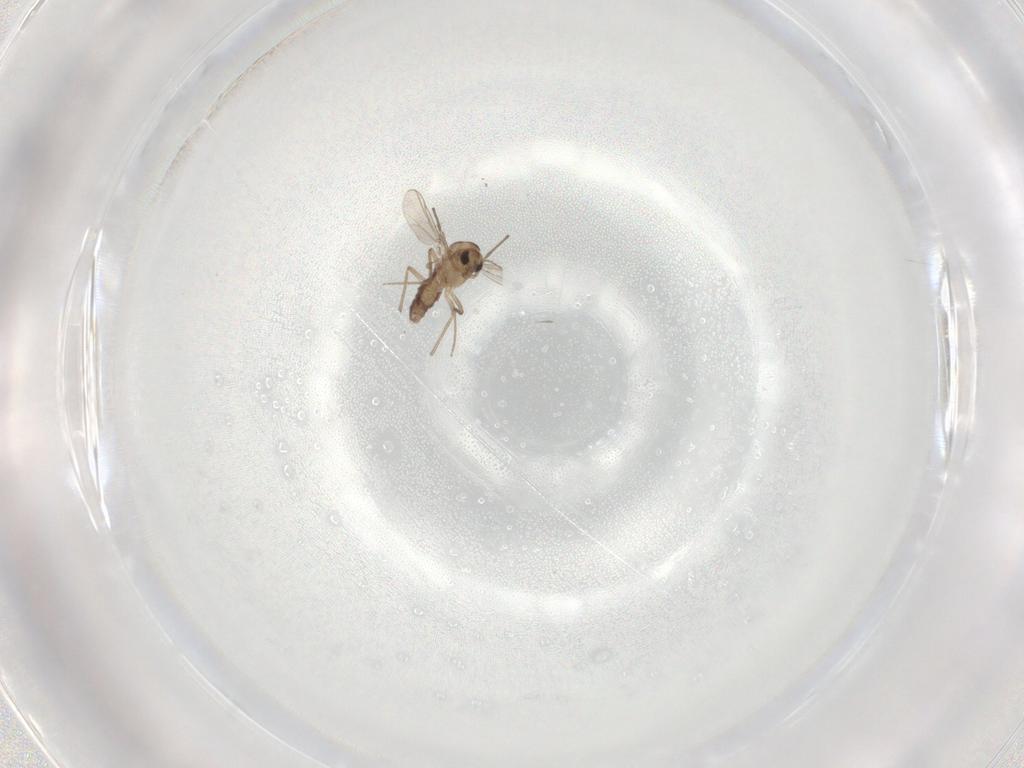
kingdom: Animalia
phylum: Arthropoda
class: Insecta
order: Diptera
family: Chironomidae
